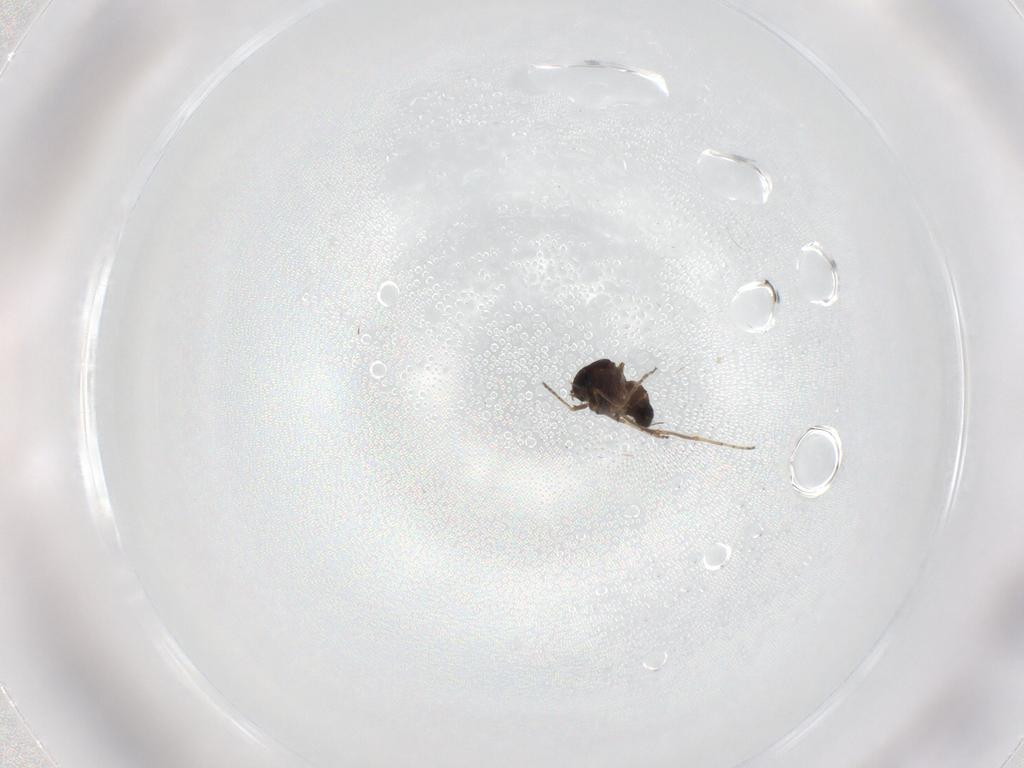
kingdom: Animalia
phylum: Arthropoda
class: Insecta
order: Diptera
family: Ceratopogonidae
